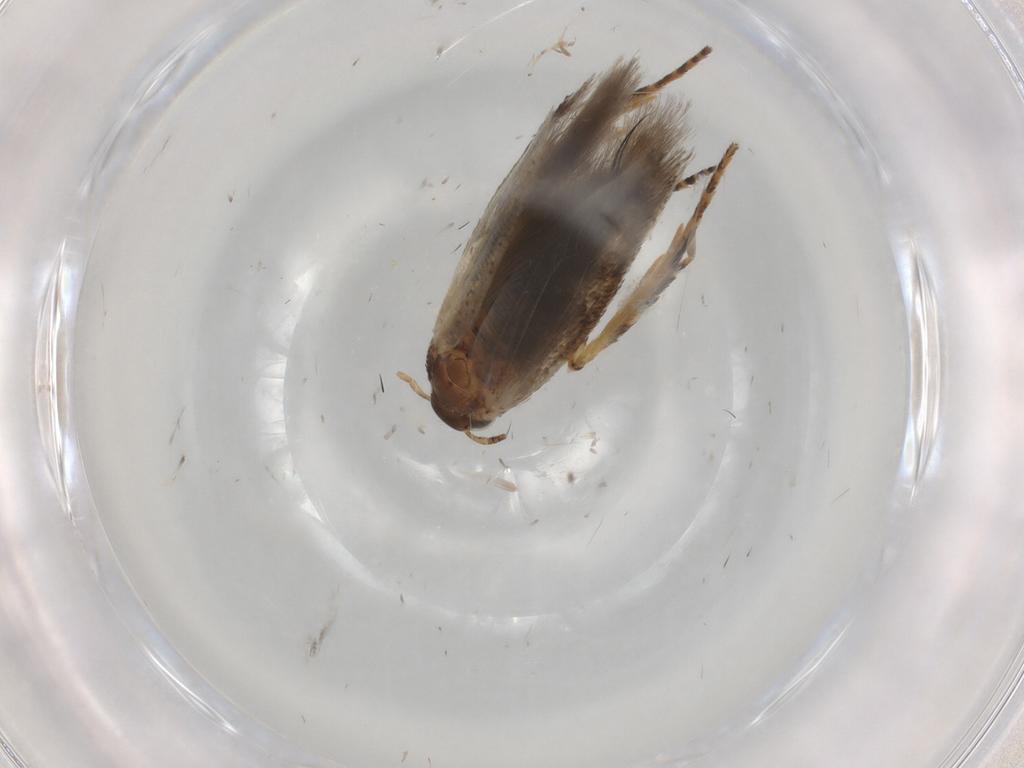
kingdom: Animalia
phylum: Arthropoda
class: Insecta
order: Lepidoptera
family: Gelechiidae
